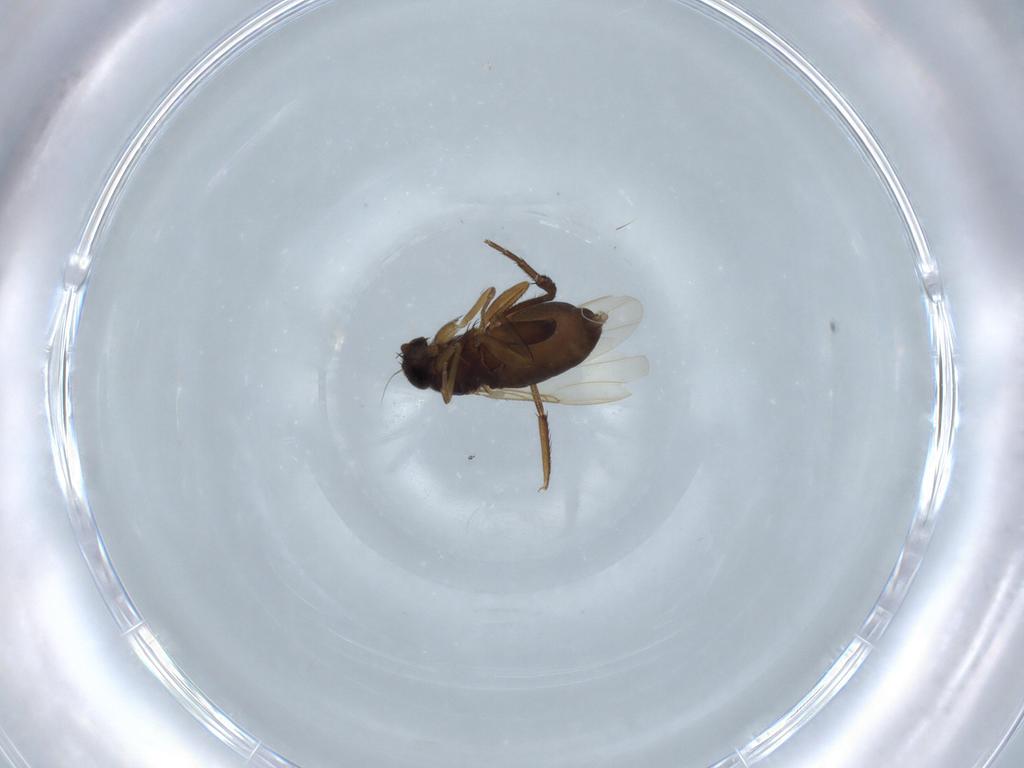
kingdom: Animalia
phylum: Arthropoda
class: Insecta
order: Diptera
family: Phoridae
